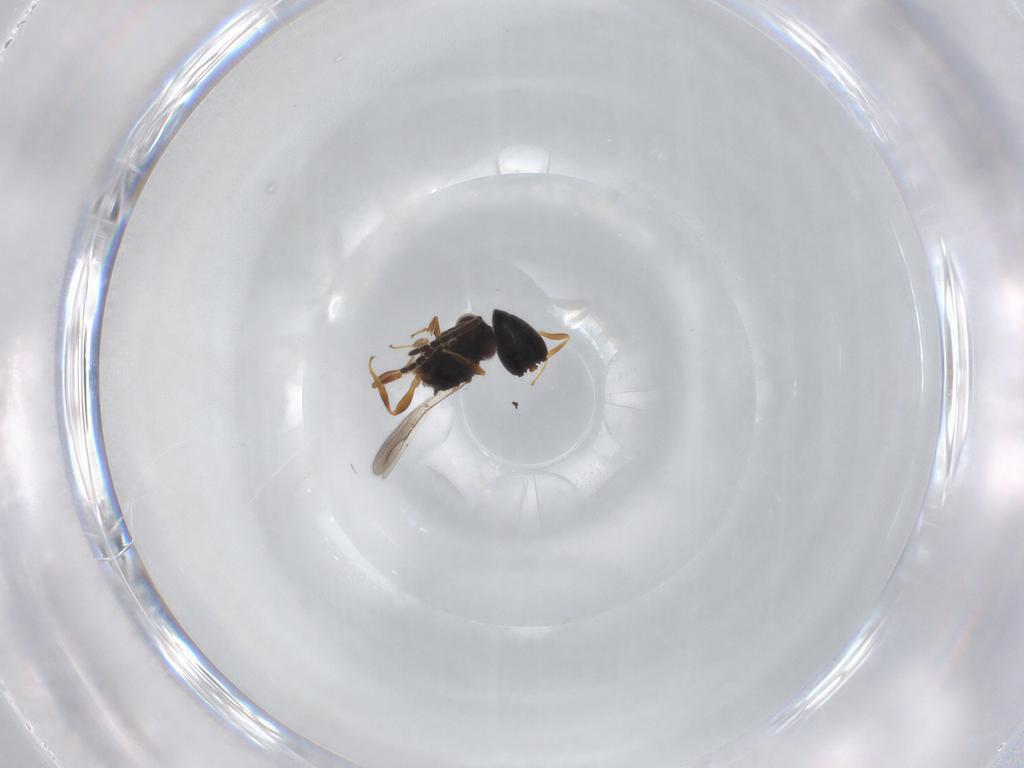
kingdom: Animalia
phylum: Arthropoda
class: Insecta
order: Hymenoptera
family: Ceraphronidae
